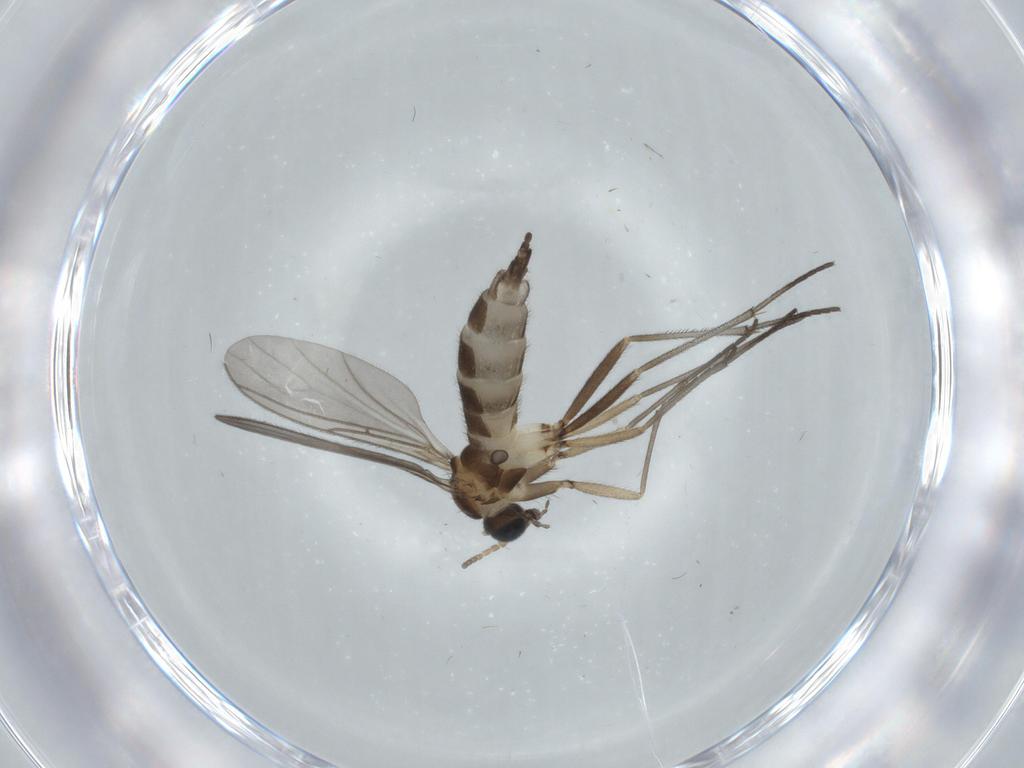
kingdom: Animalia
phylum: Arthropoda
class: Insecta
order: Diptera
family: Sciaridae
